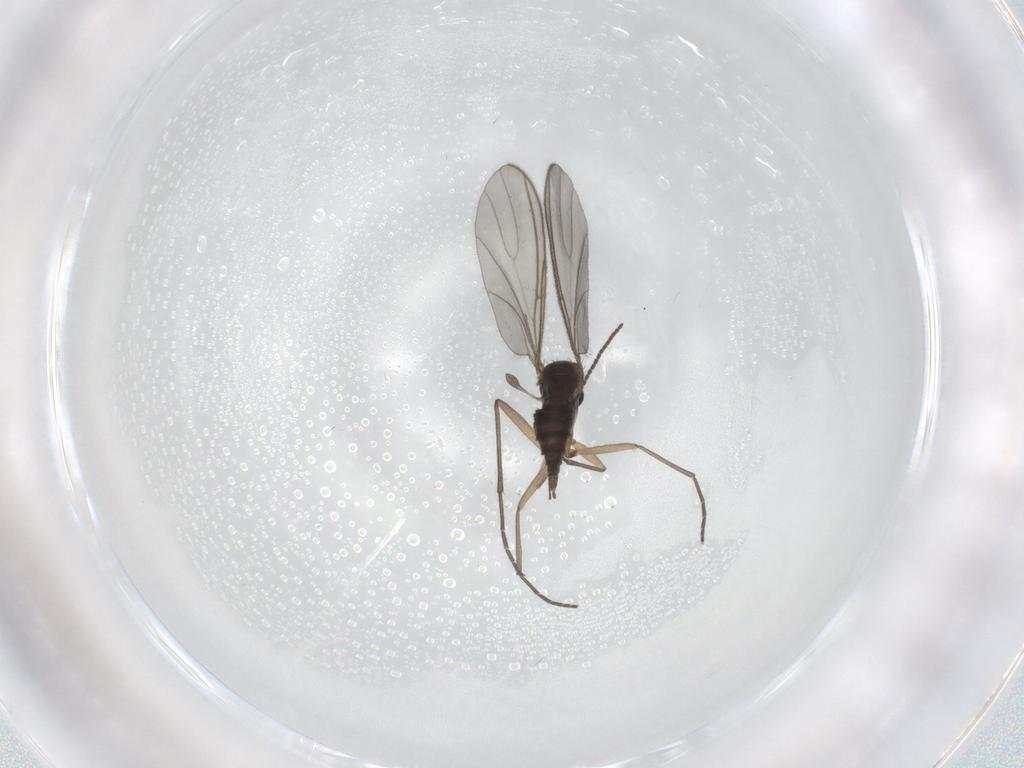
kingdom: Animalia
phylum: Arthropoda
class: Insecta
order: Diptera
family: Sciaridae
